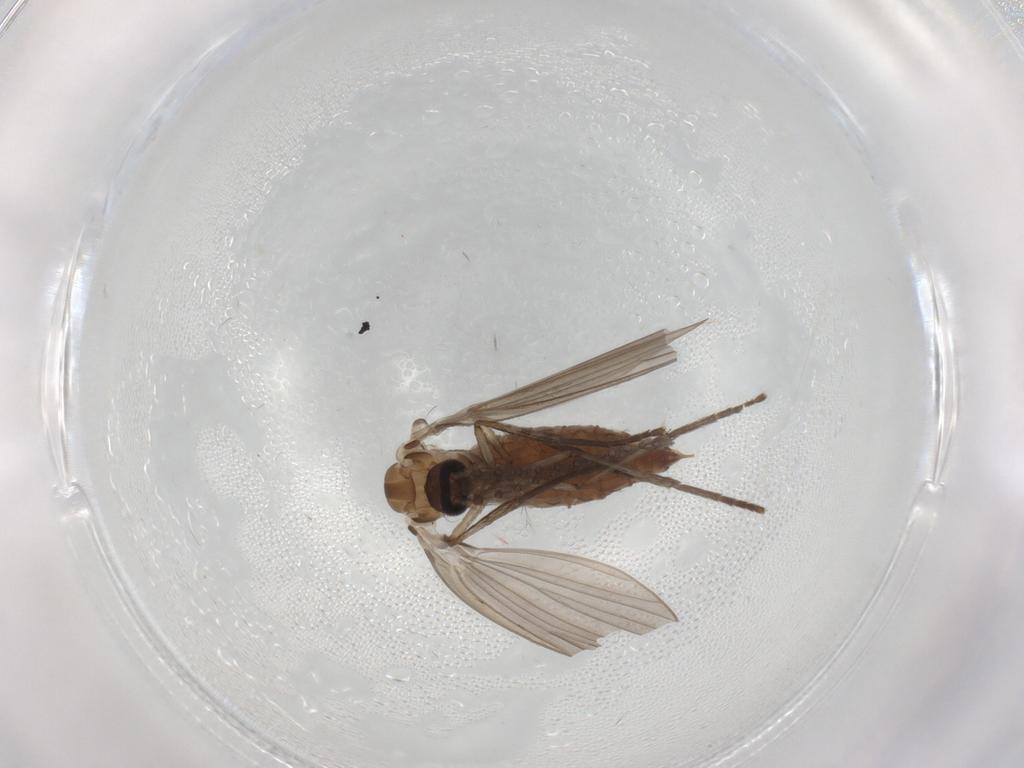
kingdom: Animalia
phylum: Arthropoda
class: Insecta
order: Diptera
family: Psychodidae
